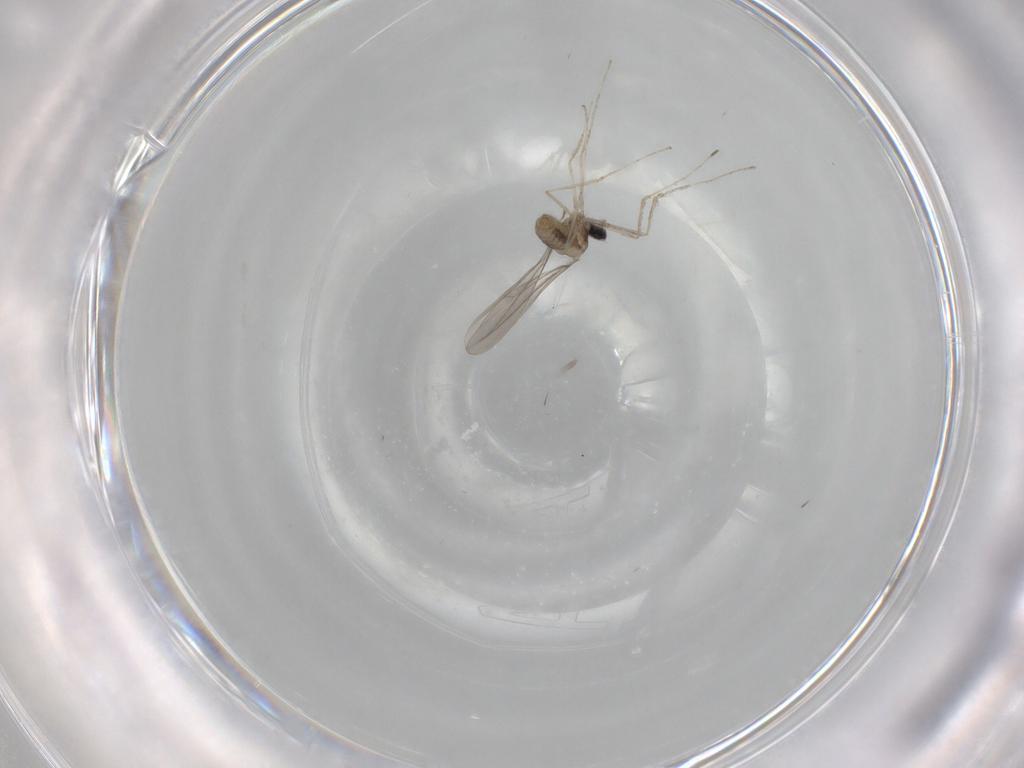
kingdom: Animalia
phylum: Arthropoda
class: Insecta
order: Diptera
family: Cecidomyiidae
